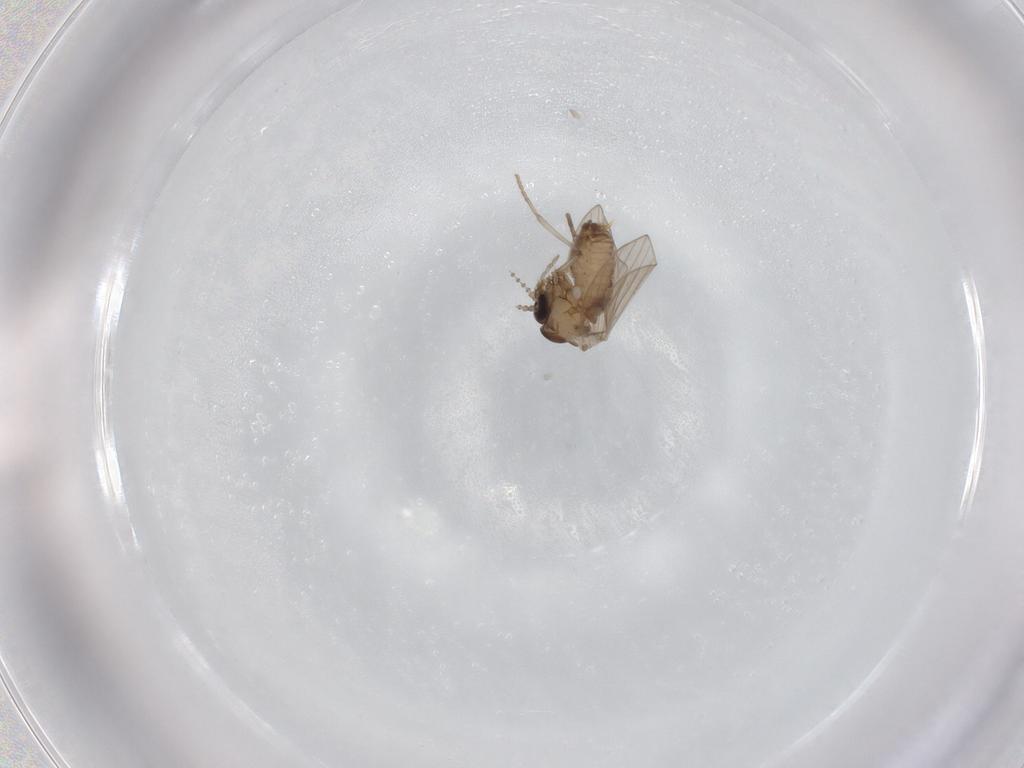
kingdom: Animalia
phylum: Arthropoda
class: Insecta
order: Diptera
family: Psychodidae
